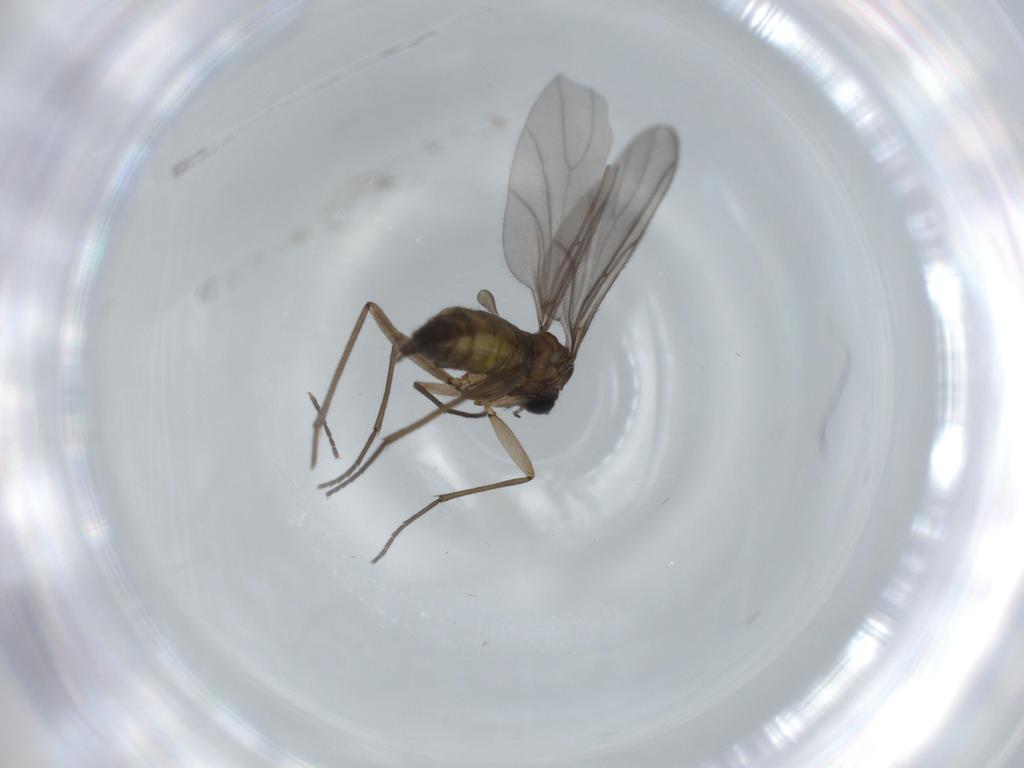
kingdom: Animalia
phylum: Arthropoda
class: Insecta
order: Diptera
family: Sciaridae
